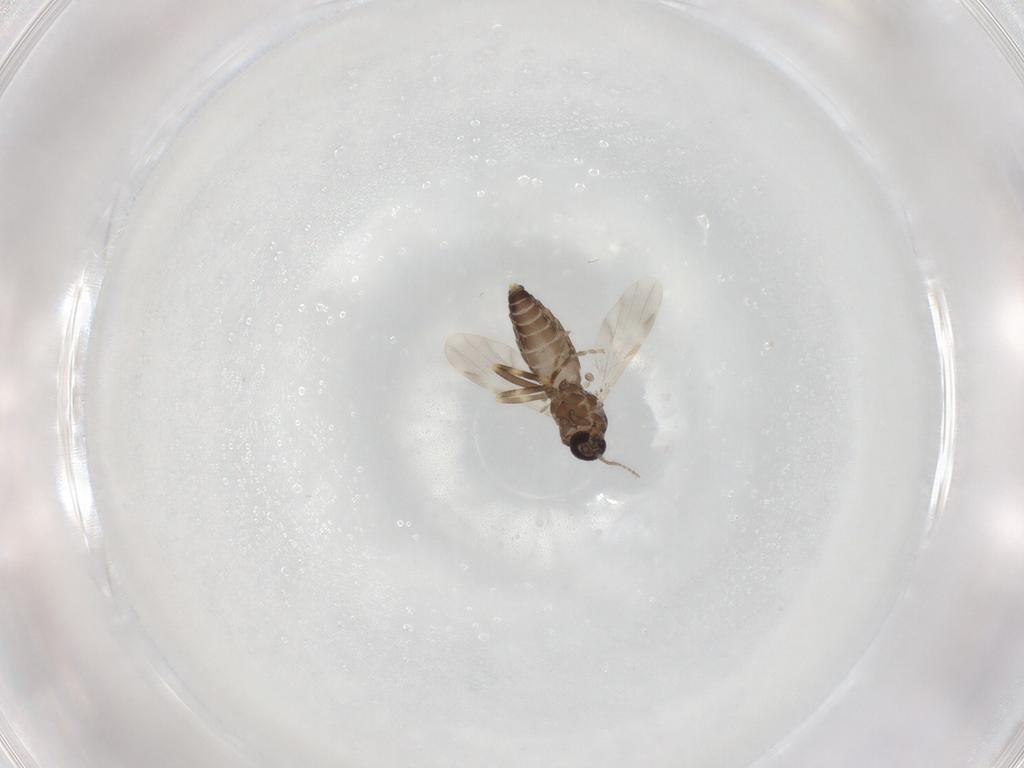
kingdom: Animalia
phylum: Arthropoda
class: Insecta
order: Diptera
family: Ceratopogonidae
